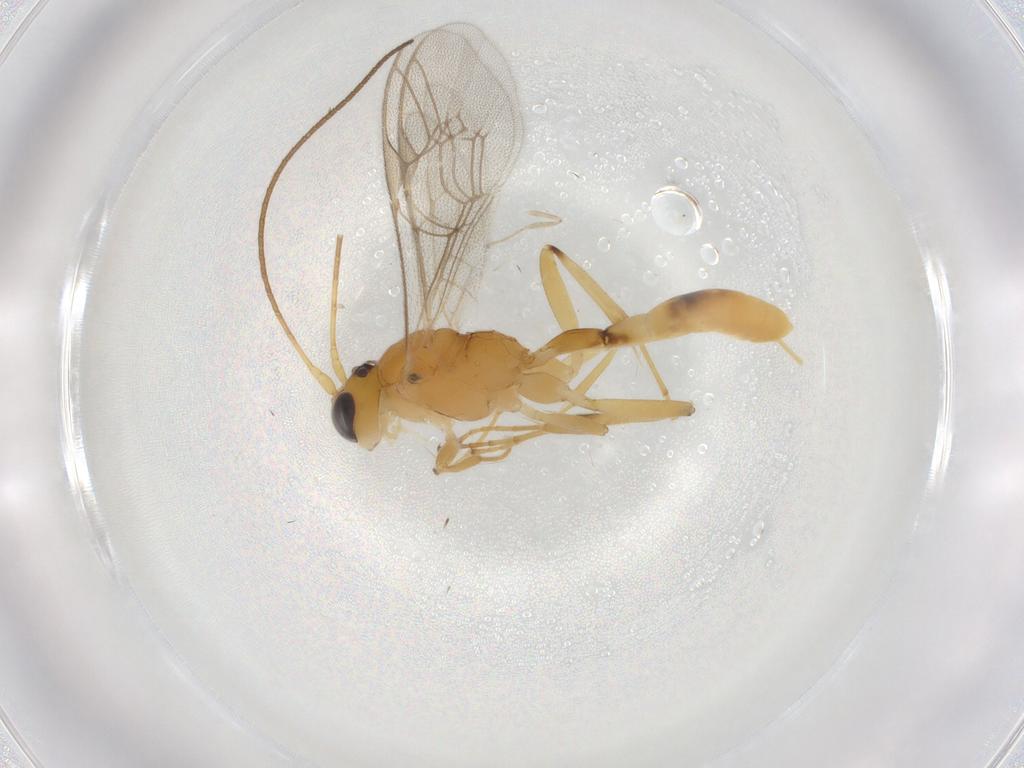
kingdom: Animalia
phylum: Arthropoda
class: Insecta
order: Hymenoptera
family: Ichneumonidae
